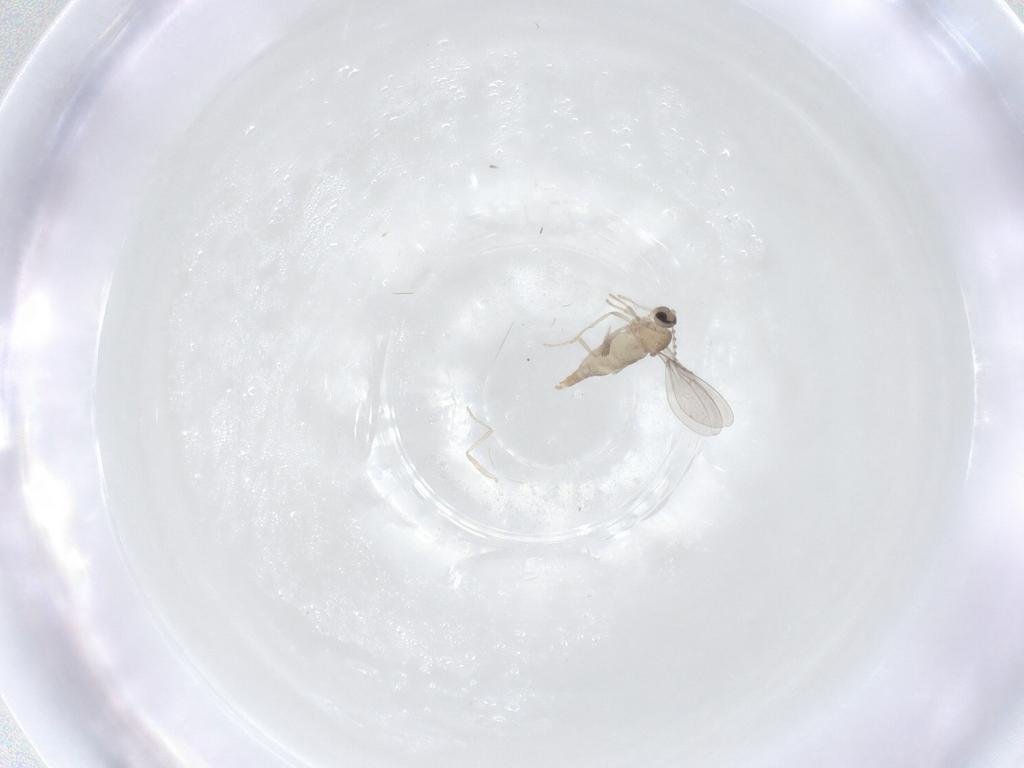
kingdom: Animalia
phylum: Arthropoda
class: Insecta
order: Diptera
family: Cecidomyiidae
